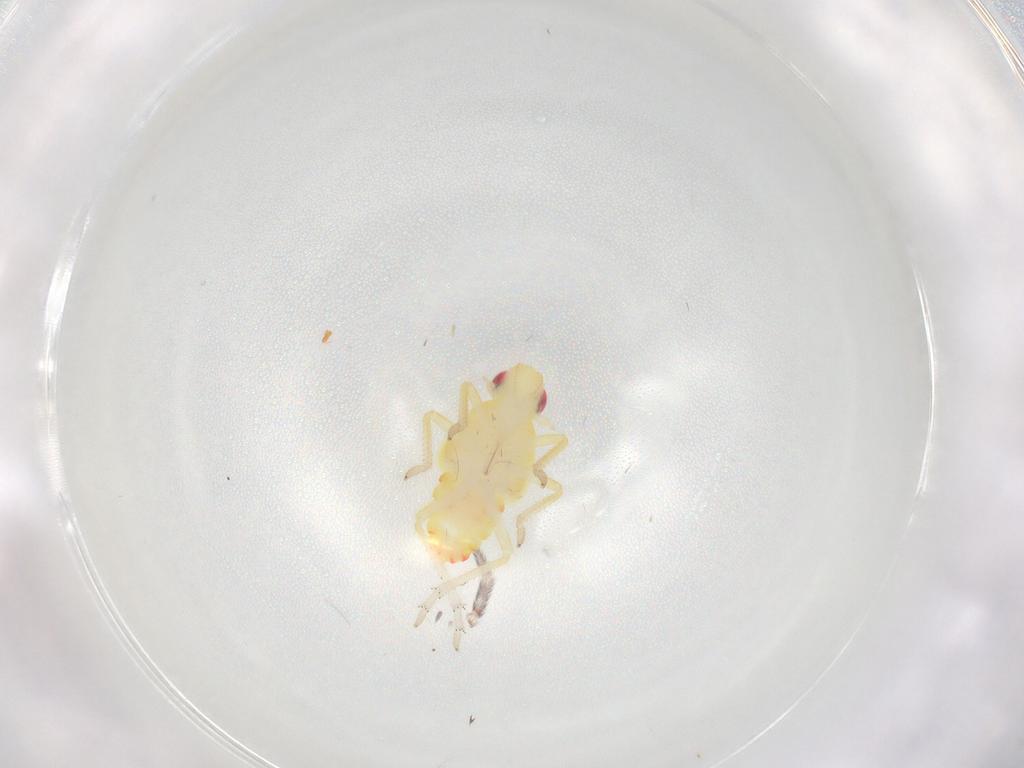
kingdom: Animalia
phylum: Arthropoda
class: Insecta
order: Hemiptera
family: Tropiduchidae
